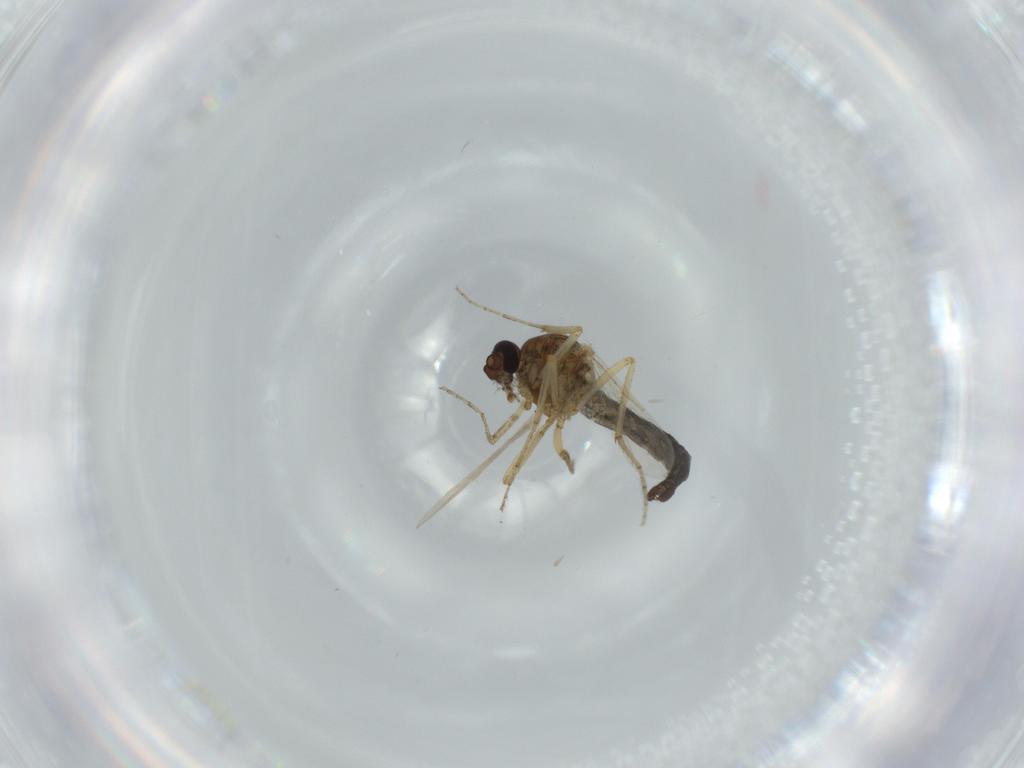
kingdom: Animalia
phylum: Arthropoda
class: Insecta
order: Diptera
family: Ceratopogonidae
